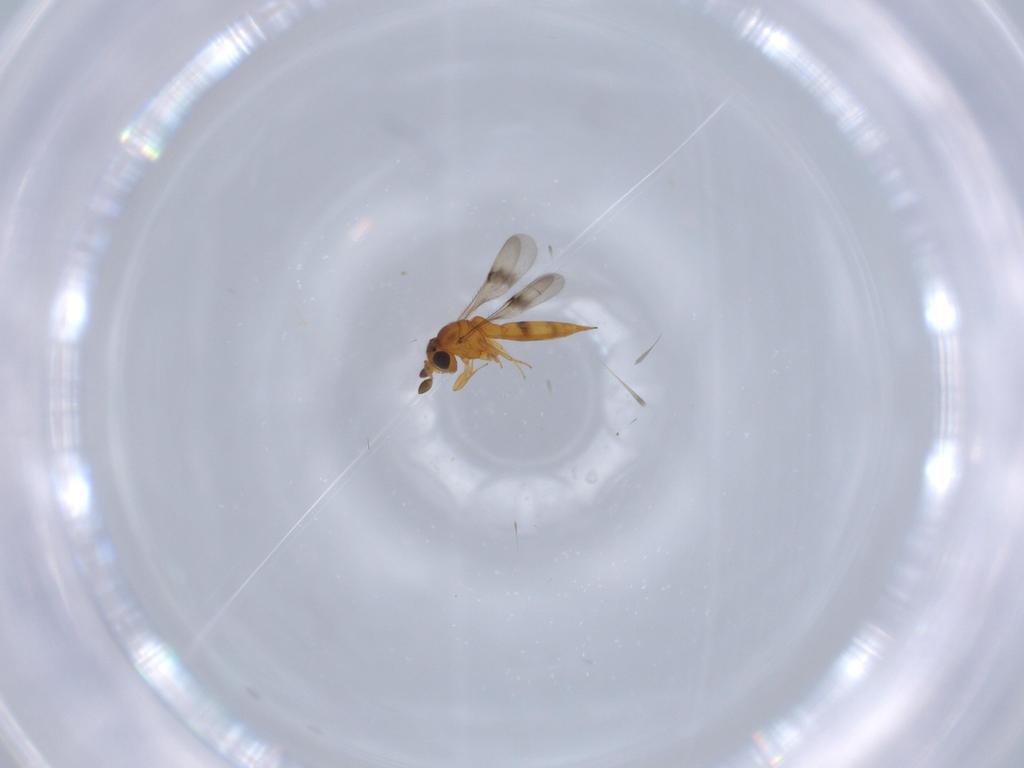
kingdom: Animalia
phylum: Arthropoda
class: Insecta
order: Hymenoptera
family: Scelionidae
